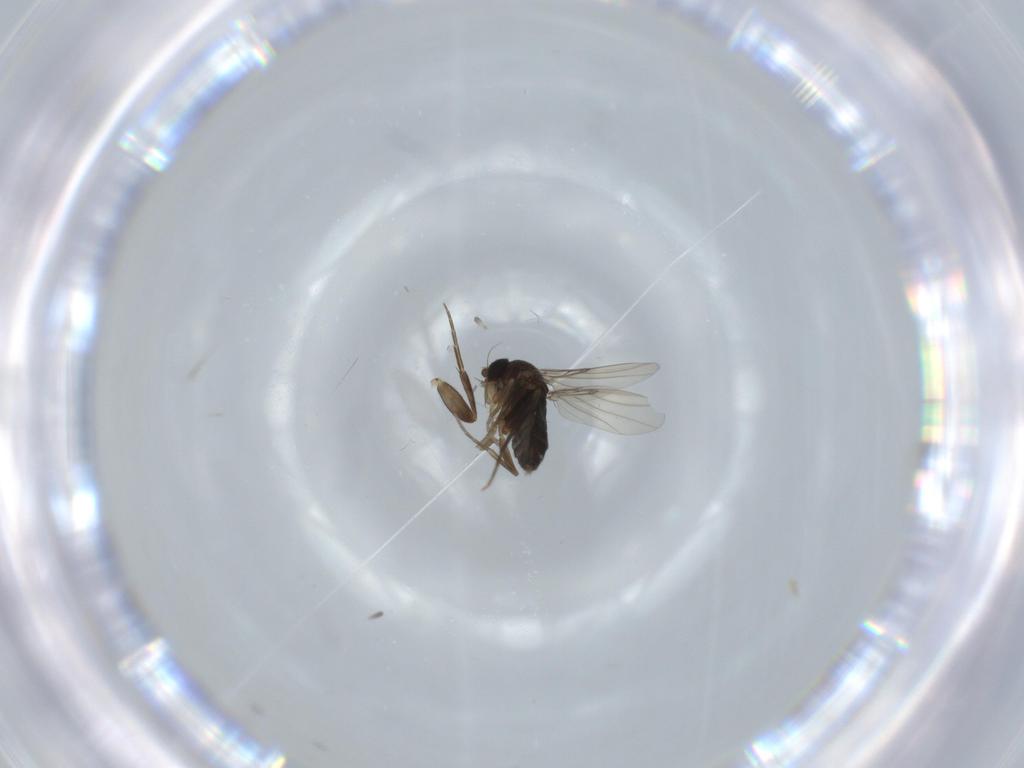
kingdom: Animalia
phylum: Arthropoda
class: Insecta
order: Diptera
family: Phoridae
